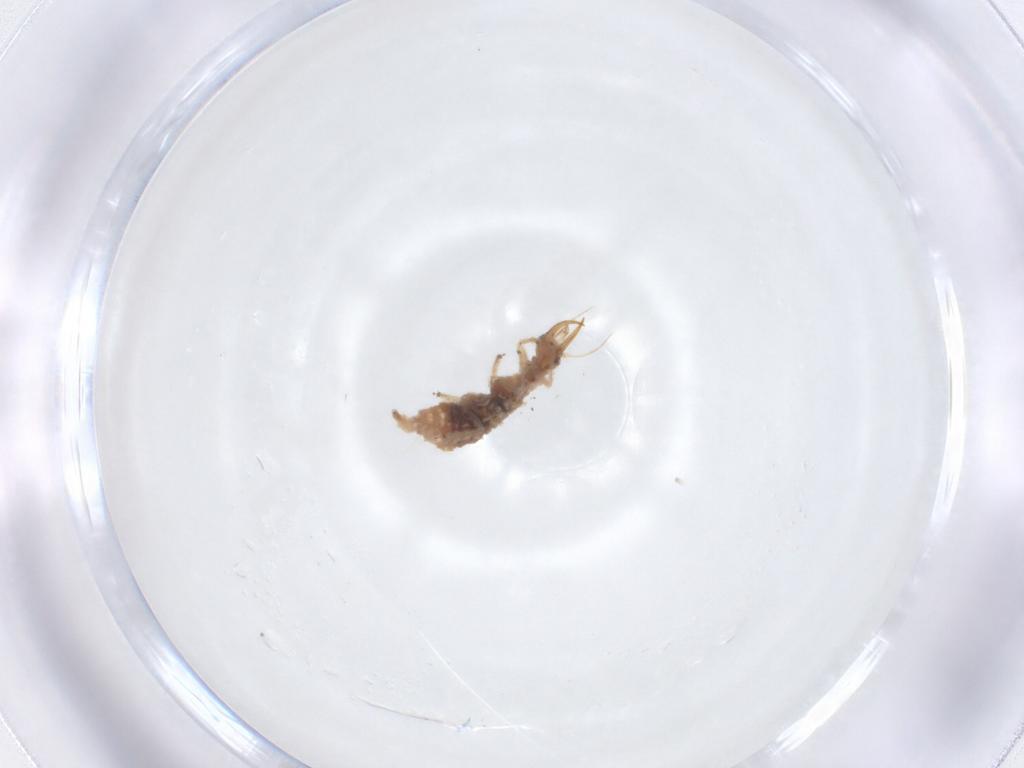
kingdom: Animalia
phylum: Arthropoda
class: Insecta
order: Neuroptera
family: Chrysopidae
